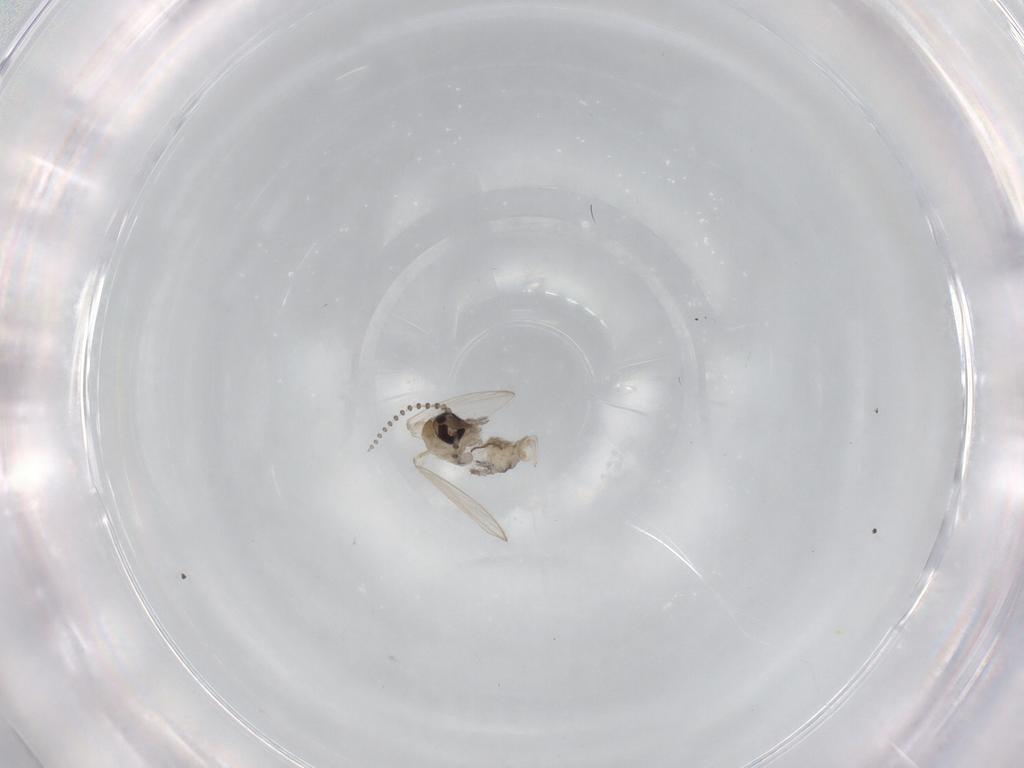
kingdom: Animalia
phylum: Arthropoda
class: Insecta
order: Diptera
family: Psychodidae
